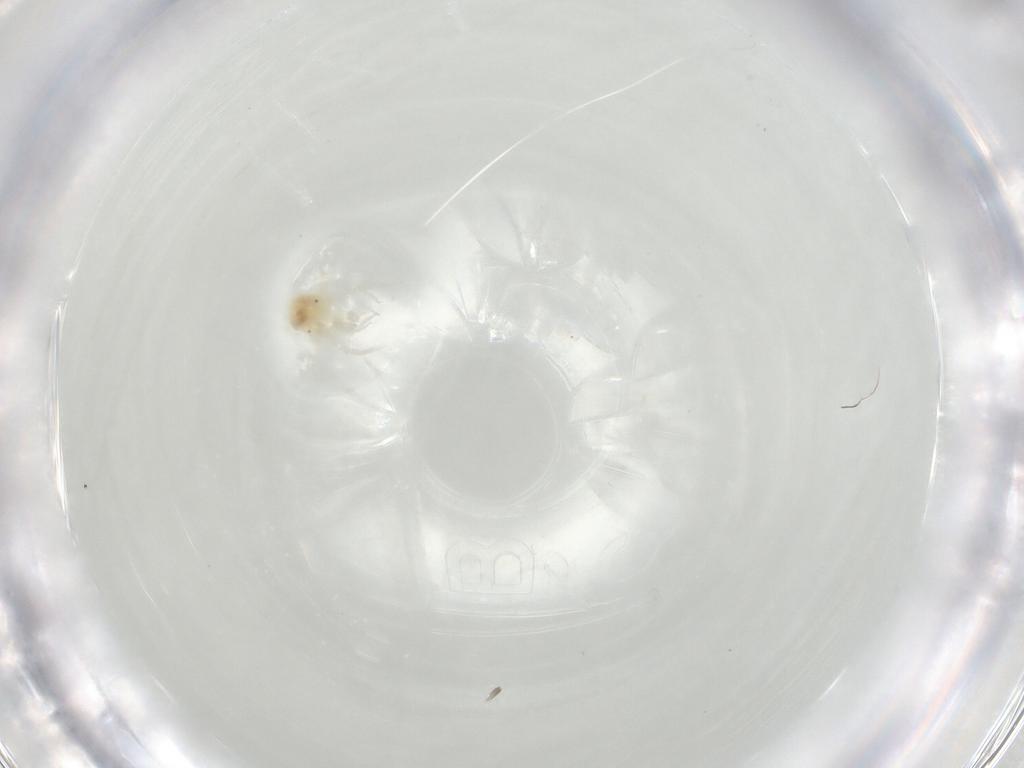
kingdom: Animalia
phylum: Arthropoda
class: Arachnida
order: Trombidiformes
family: Anystidae
